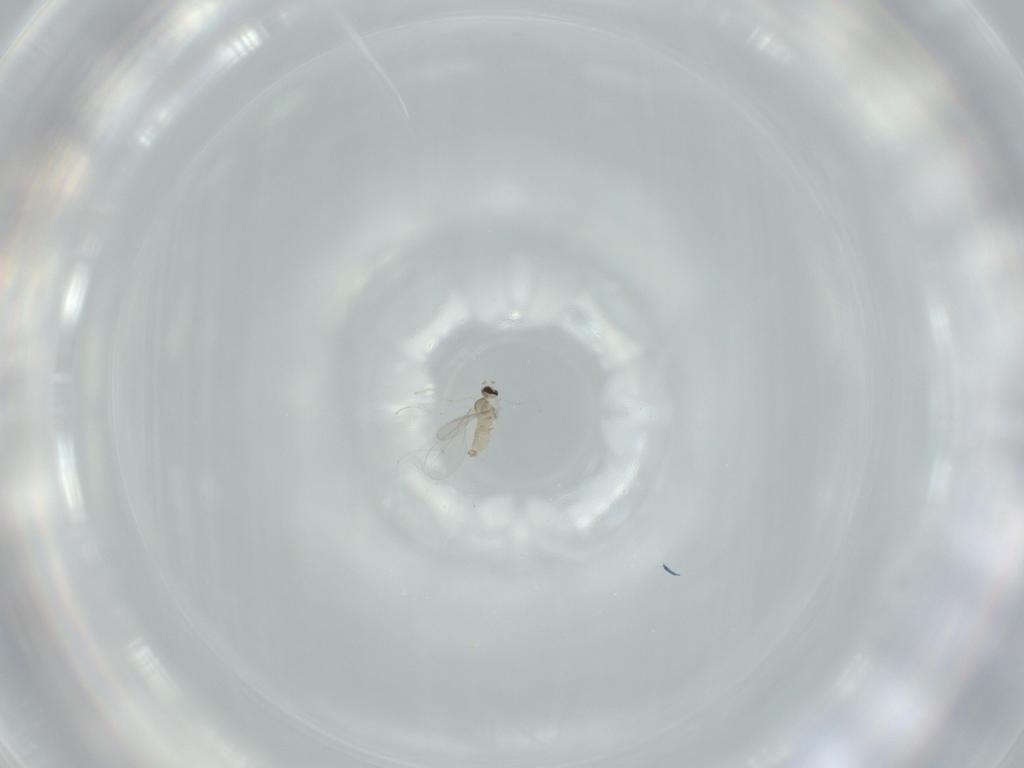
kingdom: Animalia
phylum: Arthropoda
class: Insecta
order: Diptera
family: Cecidomyiidae
